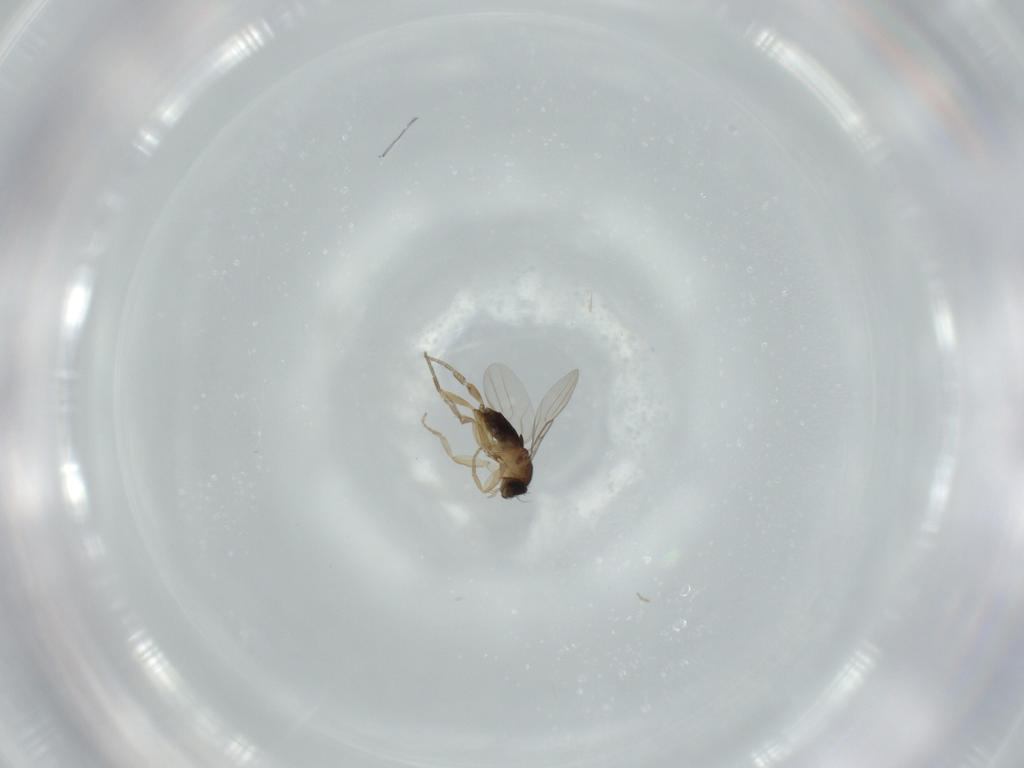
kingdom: Animalia
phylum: Arthropoda
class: Insecta
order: Diptera
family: Phoridae
